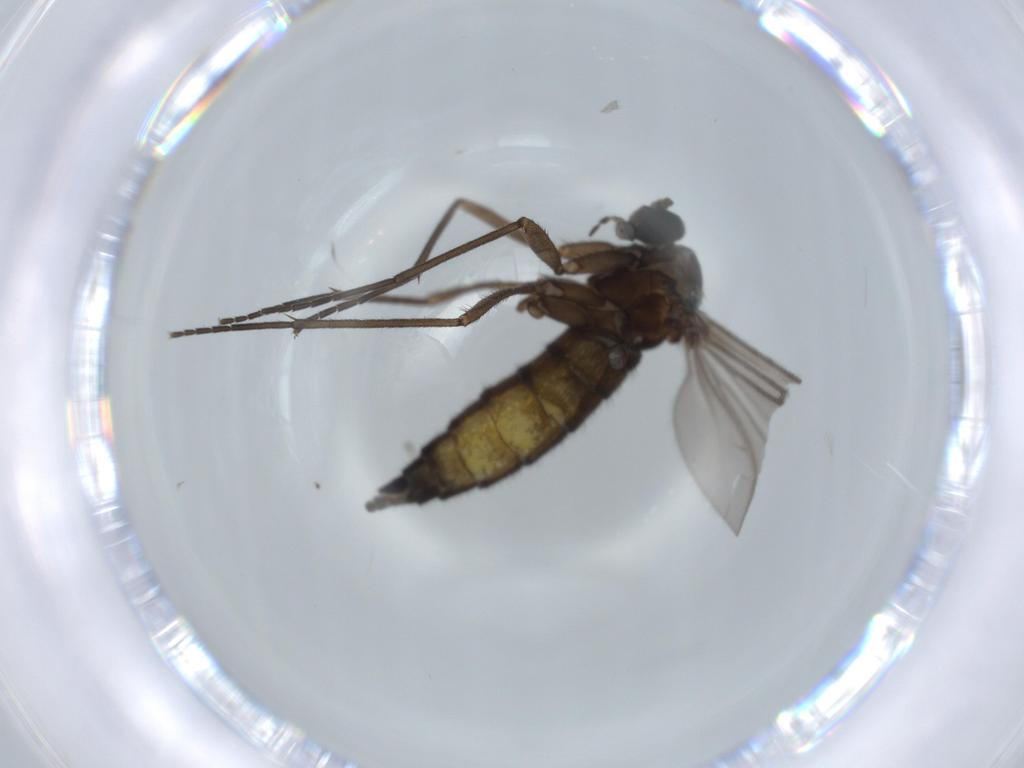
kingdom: Animalia
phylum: Arthropoda
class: Insecta
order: Diptera
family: Sciaridae
